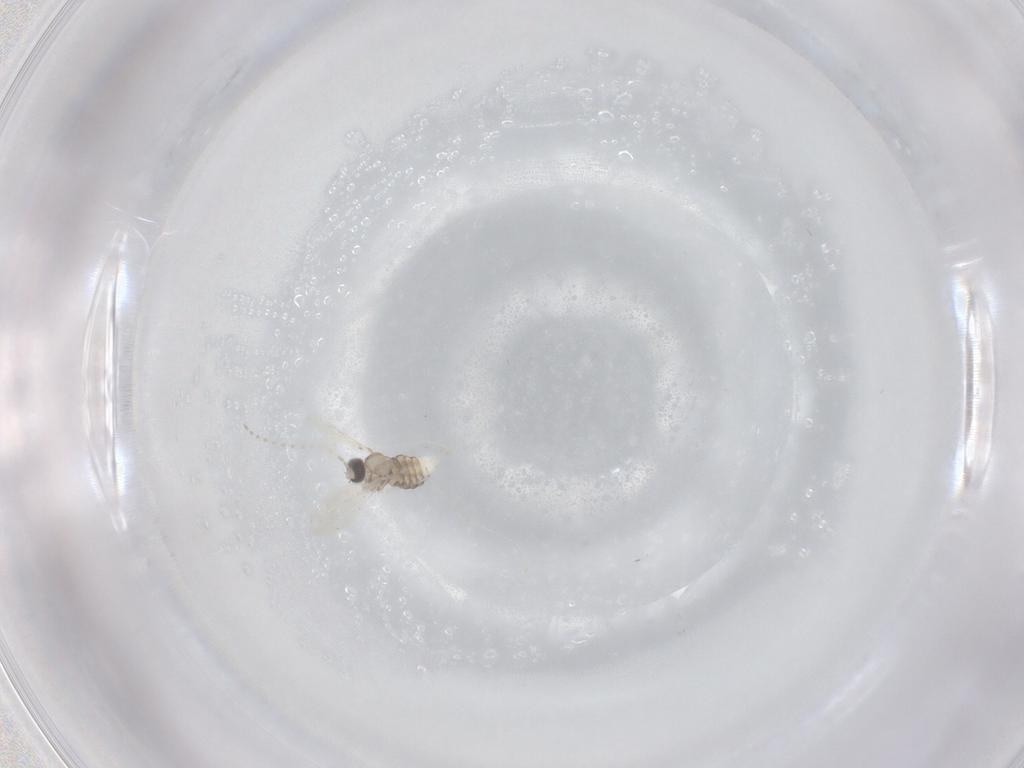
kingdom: Animalia
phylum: Arthropoda
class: Insecta
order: Diptera
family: Cecidomyiidae
